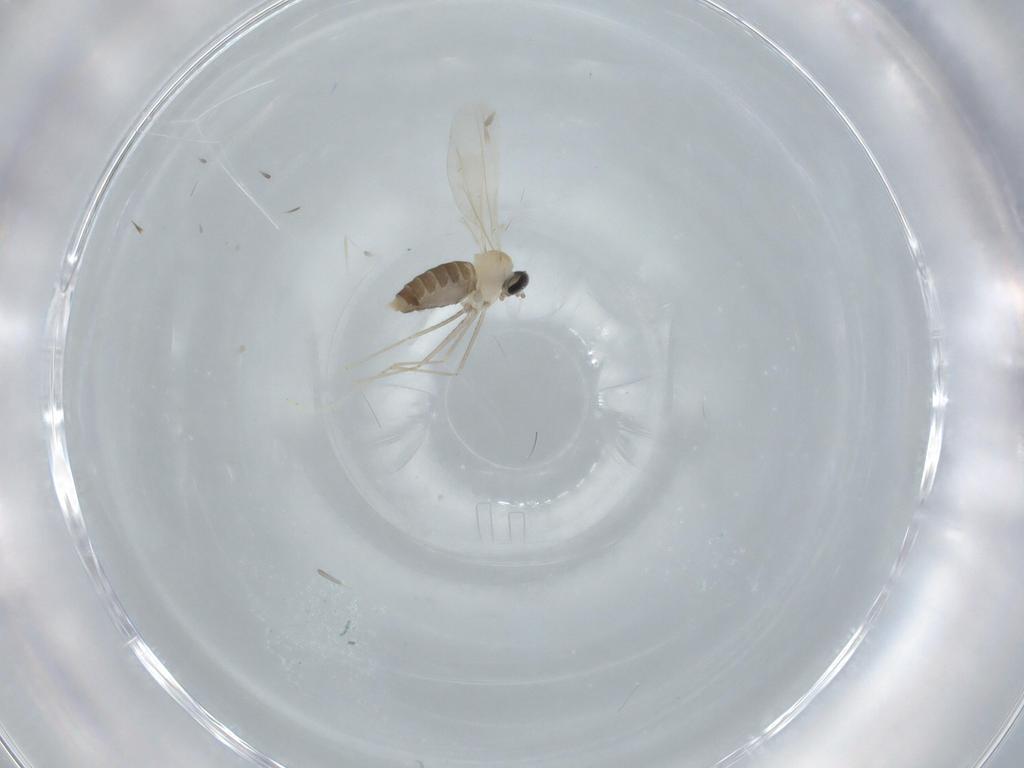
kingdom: Animalia
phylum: Arthropoda
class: Insecta
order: Diptera
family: Cecidomyiidae
